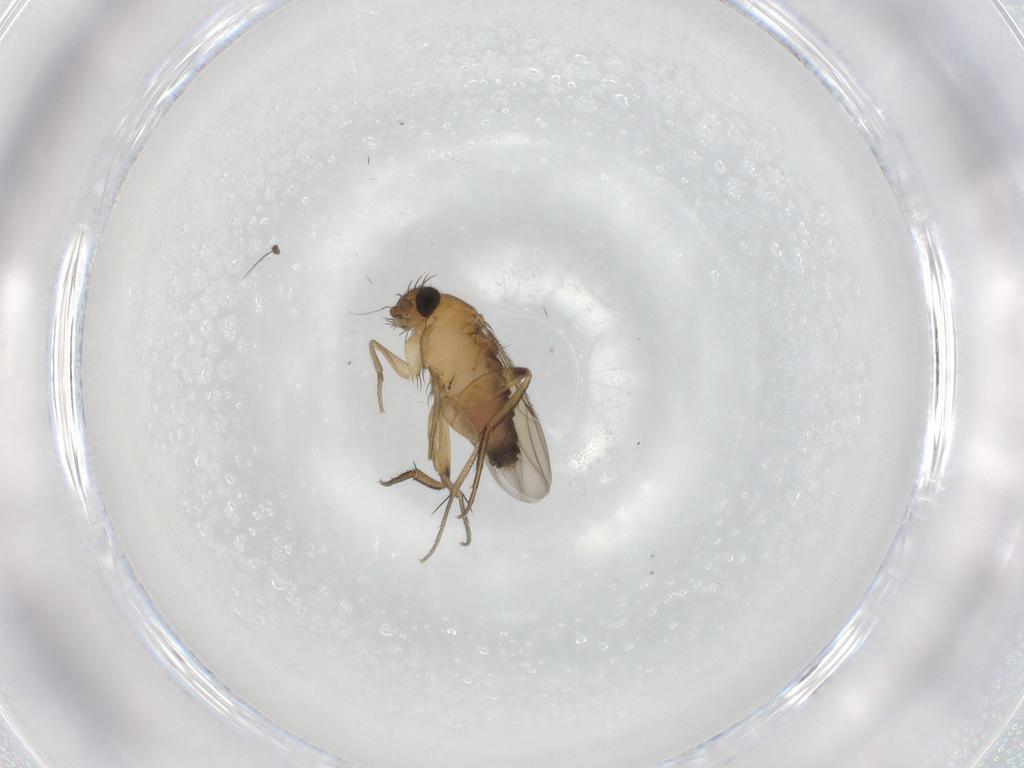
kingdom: Animalia
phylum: Arthropoda
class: Insecta
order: Diptera
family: Phoridae
